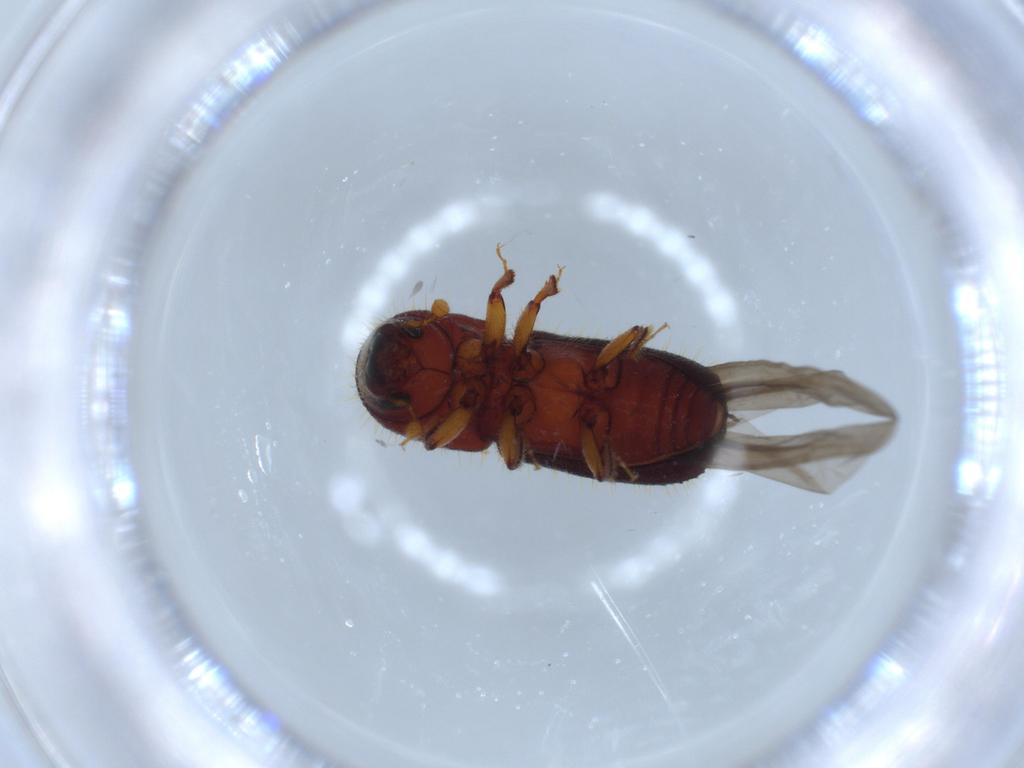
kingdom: Animalia
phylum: Arthropoda
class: Insecta
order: Coleoptera
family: Curculionidae
